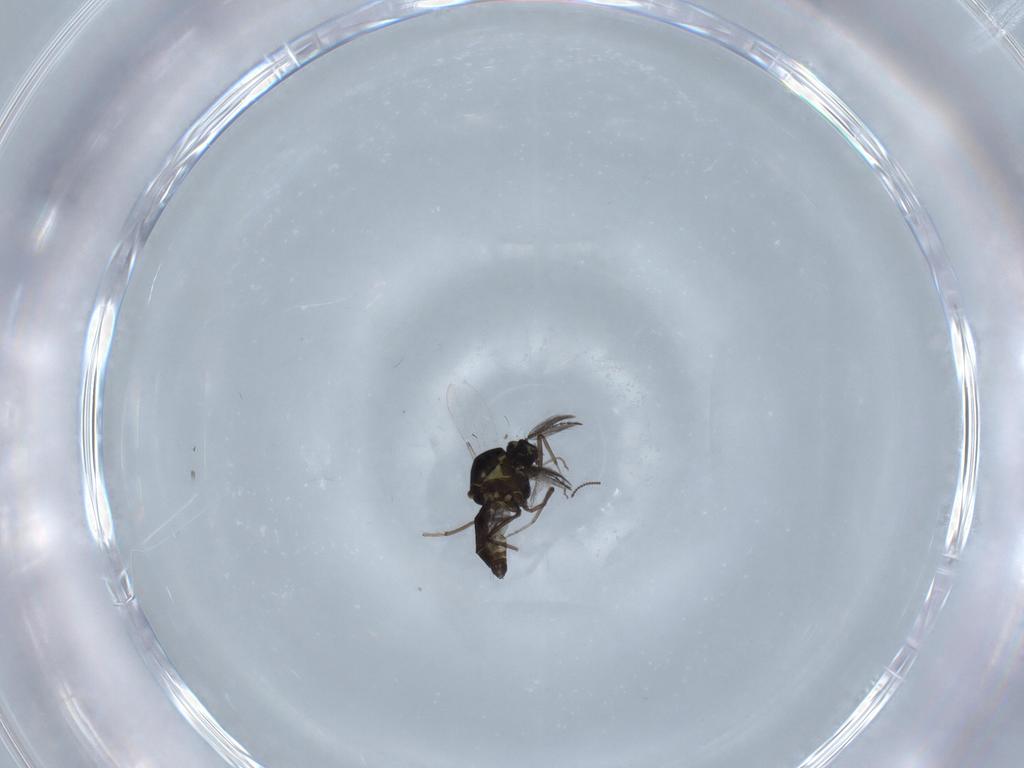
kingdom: Animalia
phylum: Arthropoda
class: Insecta
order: Diptera
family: Ceratopogonidae
